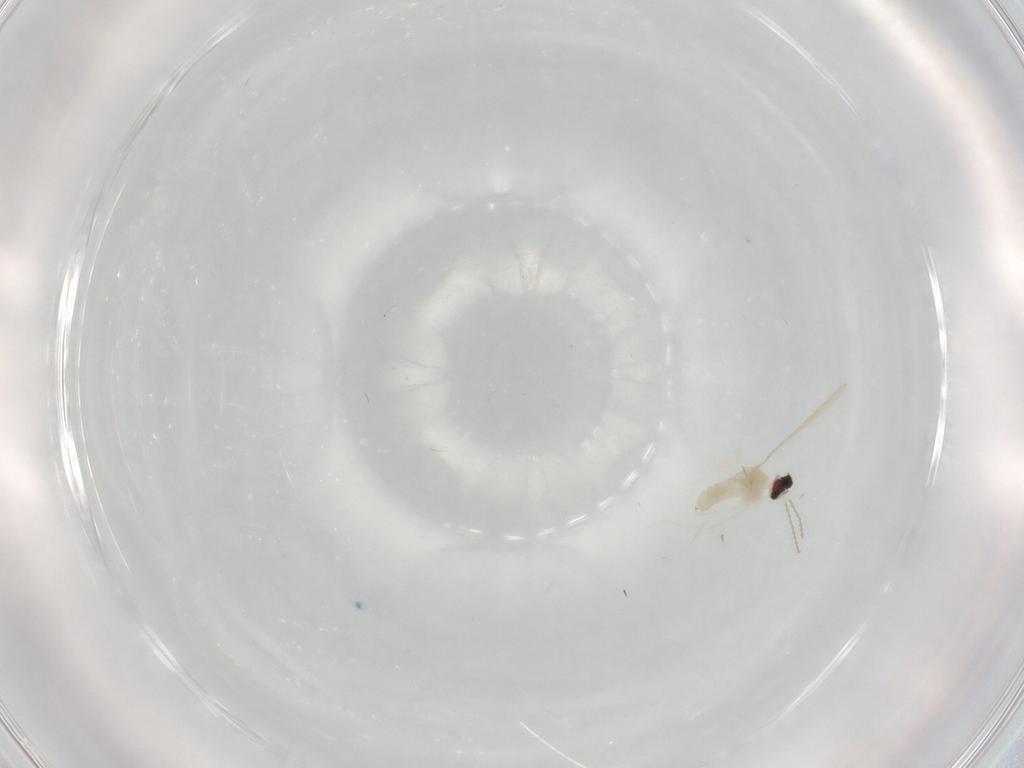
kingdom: Animalia
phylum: Arthropoda
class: Insecta
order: Diptera
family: Cecidomyiidae
